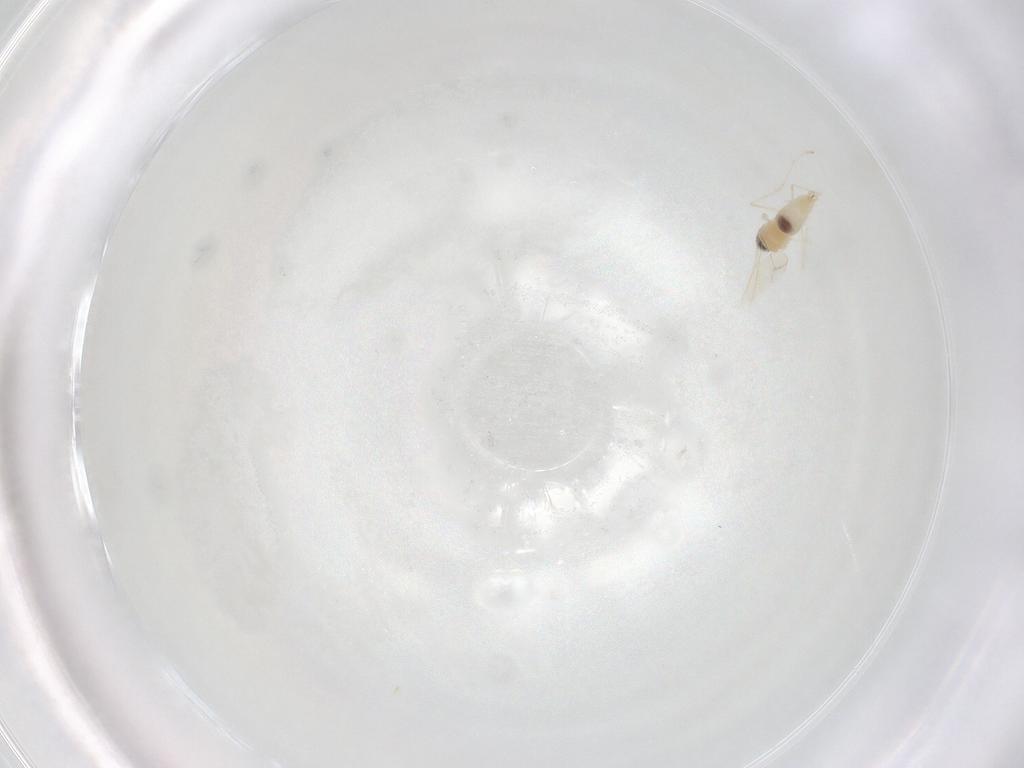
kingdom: Animalia
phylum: Arthropoda
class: Insecta
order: Diptera
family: Cecidomyiidae
